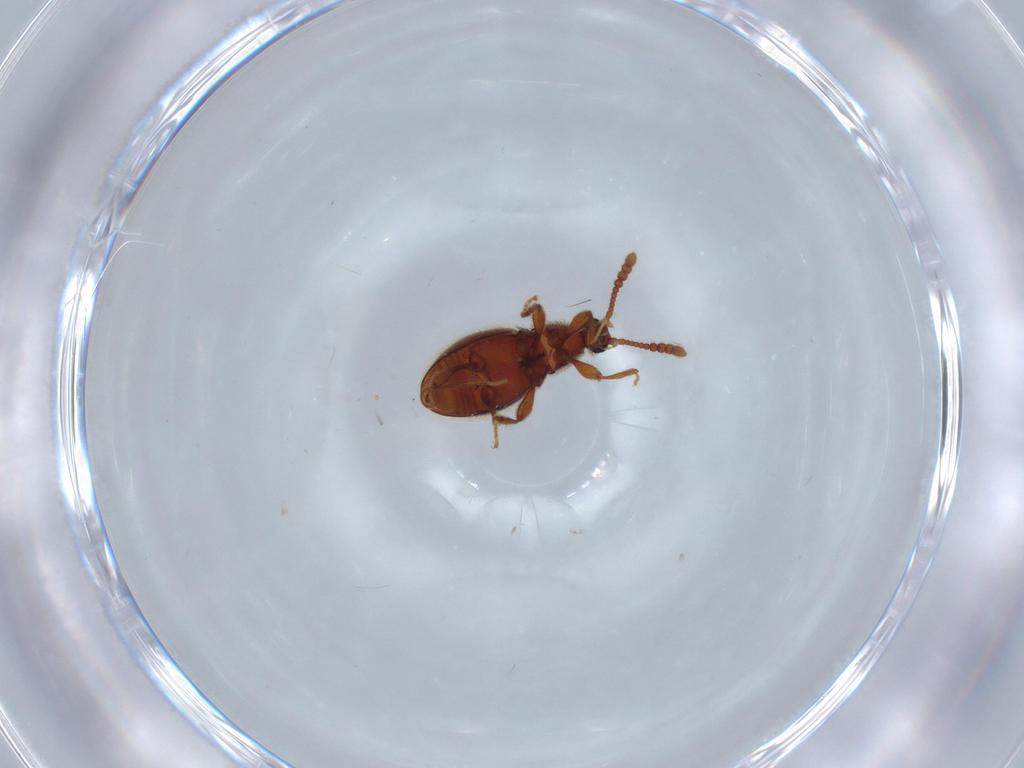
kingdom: Animalia
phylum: Arthropoda
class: Insecta
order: Coleoptera
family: Staphylinidae
